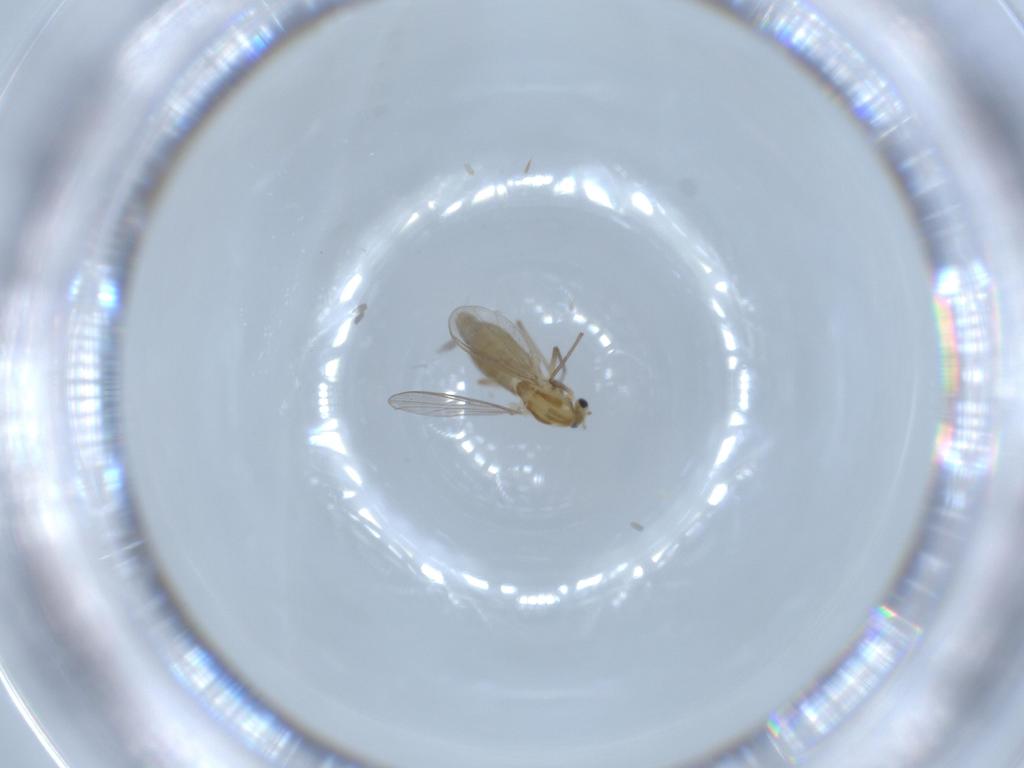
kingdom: Animalia
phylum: Arthropoda
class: Insecta
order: Diptera
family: Chironomidae
